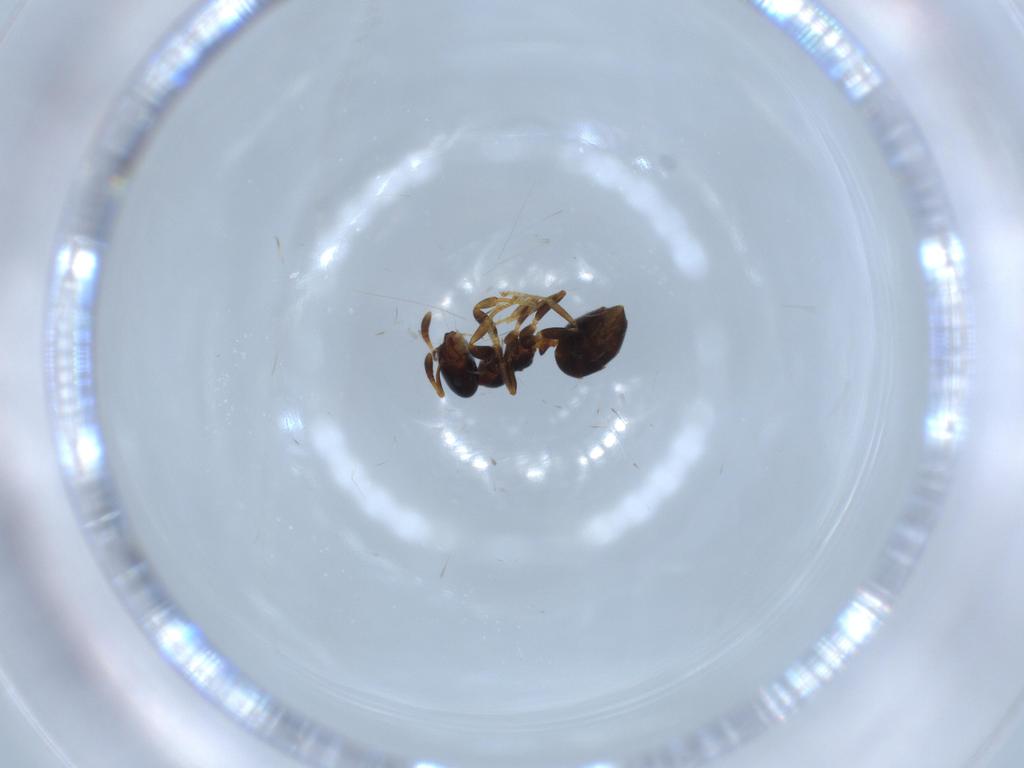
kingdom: Animalia
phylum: Arthropoda
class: Insecta
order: Hymenoptera
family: Formicidae
